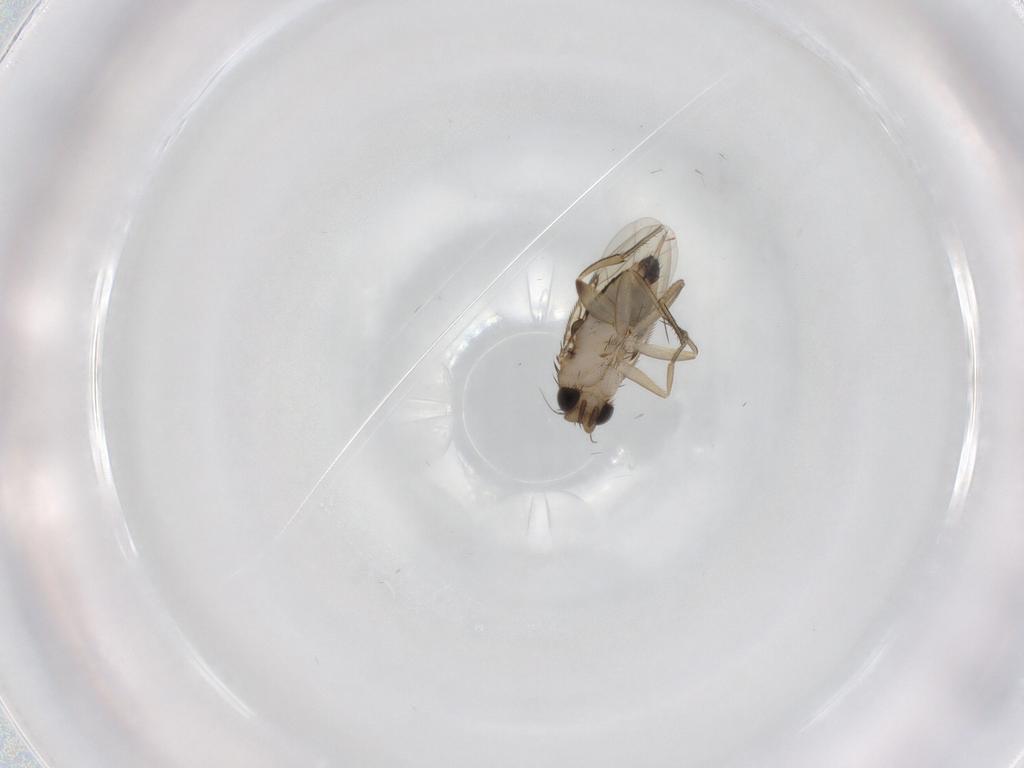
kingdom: Animalia
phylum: Arthropoda
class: Insecta
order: Diptera
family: Phoridae
